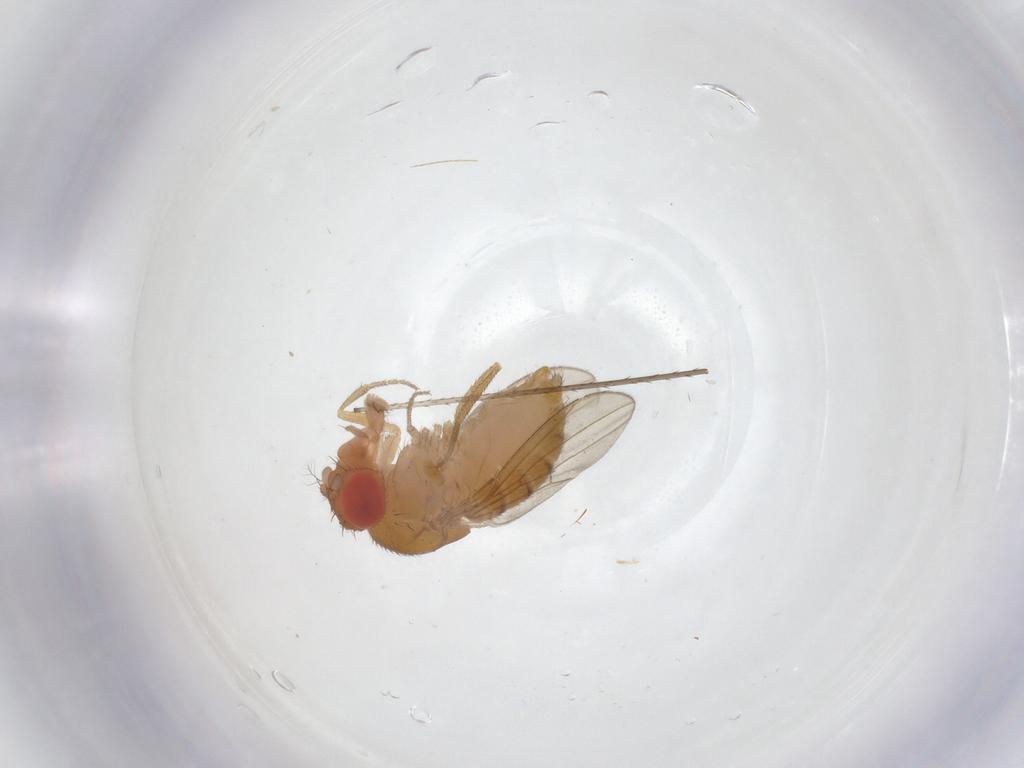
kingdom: Animalia
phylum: Arthropoda
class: Insecta
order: Diptera
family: Drosophilidae
